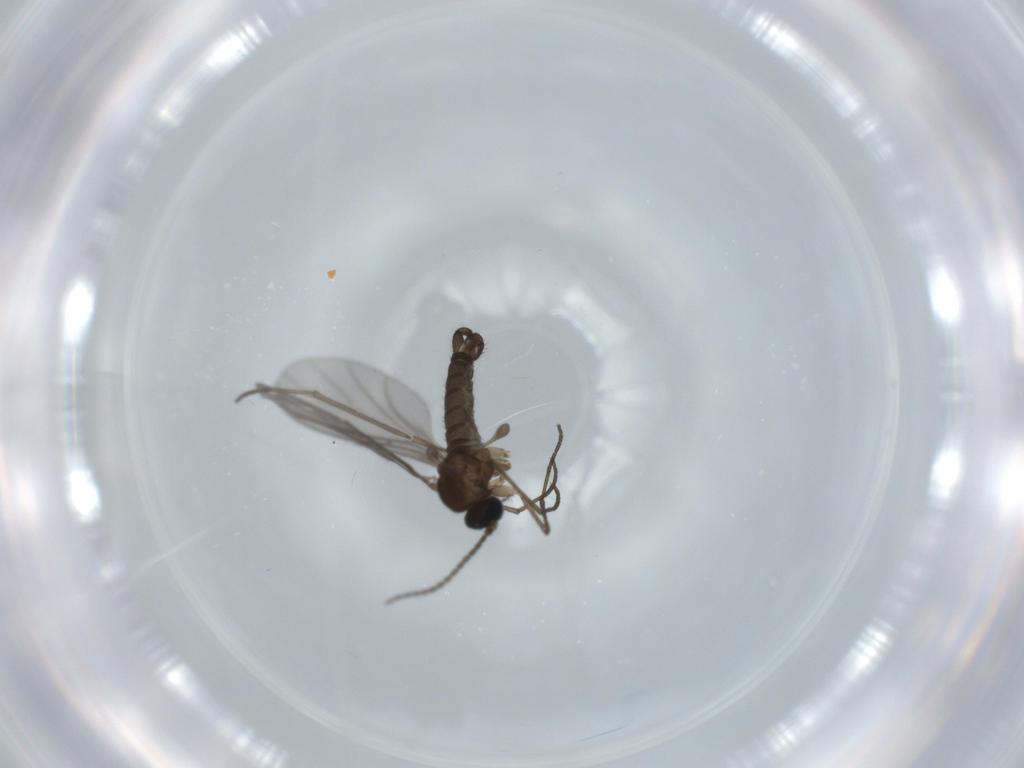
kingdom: Animalia
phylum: Arthropoda
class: Insecta
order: Diptera
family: Sciaridae
